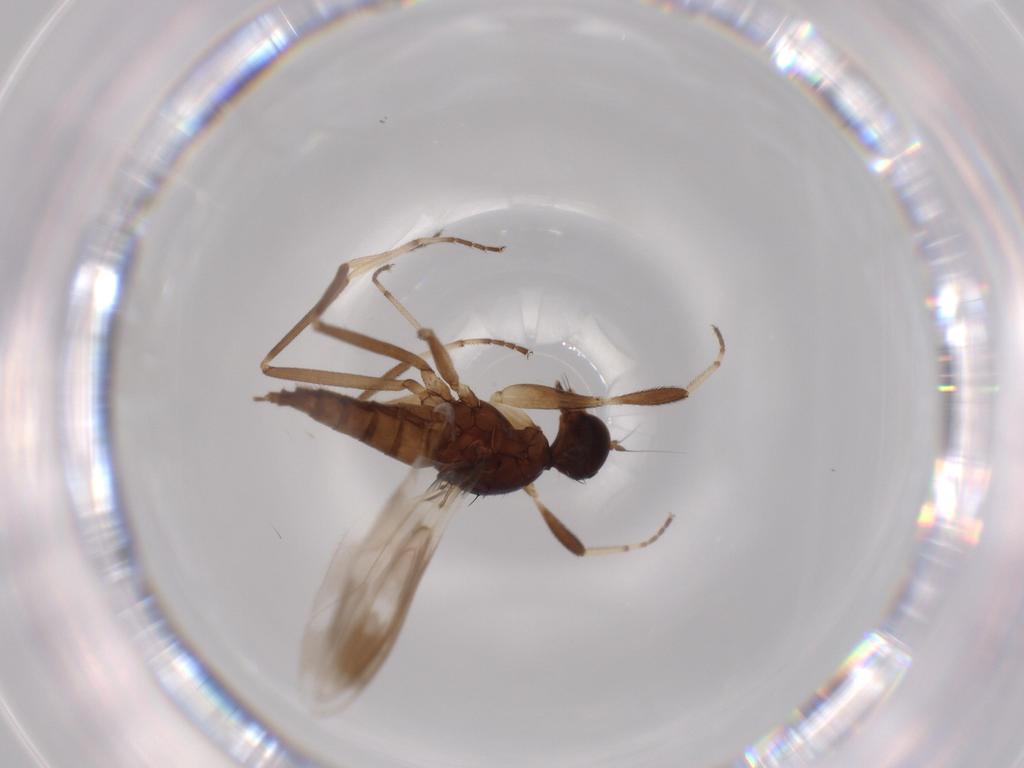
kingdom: Animalia
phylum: Arthropoda
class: Insecta
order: Diptera
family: Hybotidae
